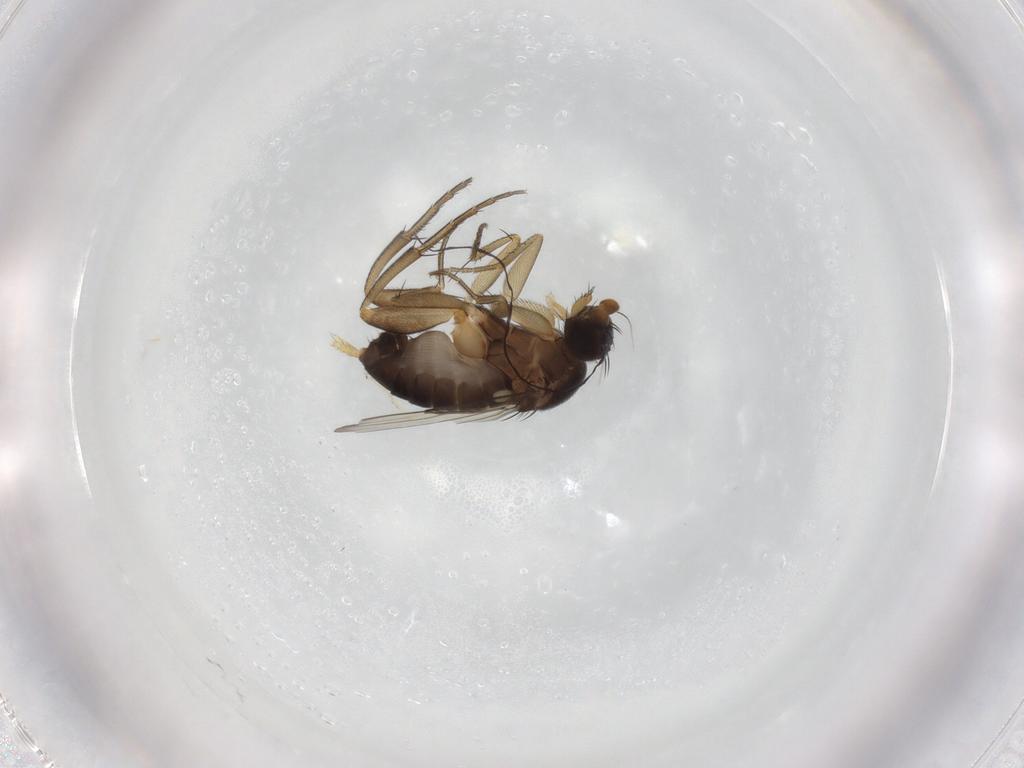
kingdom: Animalia
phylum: Arthropoda
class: Insecta
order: Diptera
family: Phoridae
